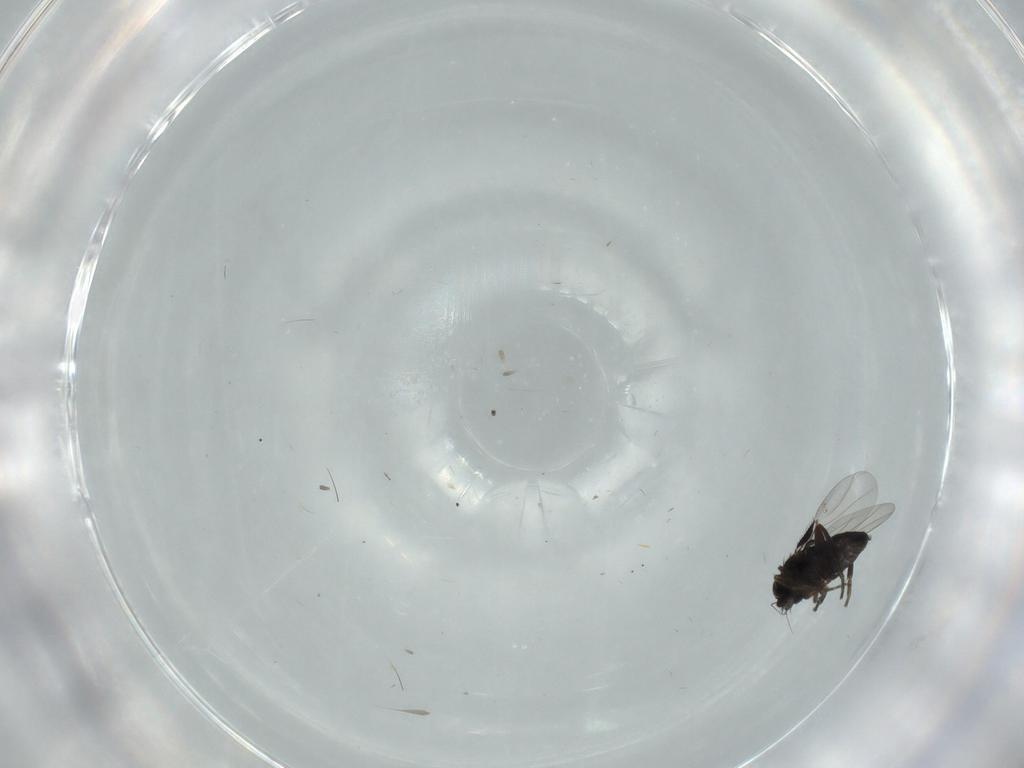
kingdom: Animalia
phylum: Arthropoda
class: Insecta
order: Diptera
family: Phoridae
